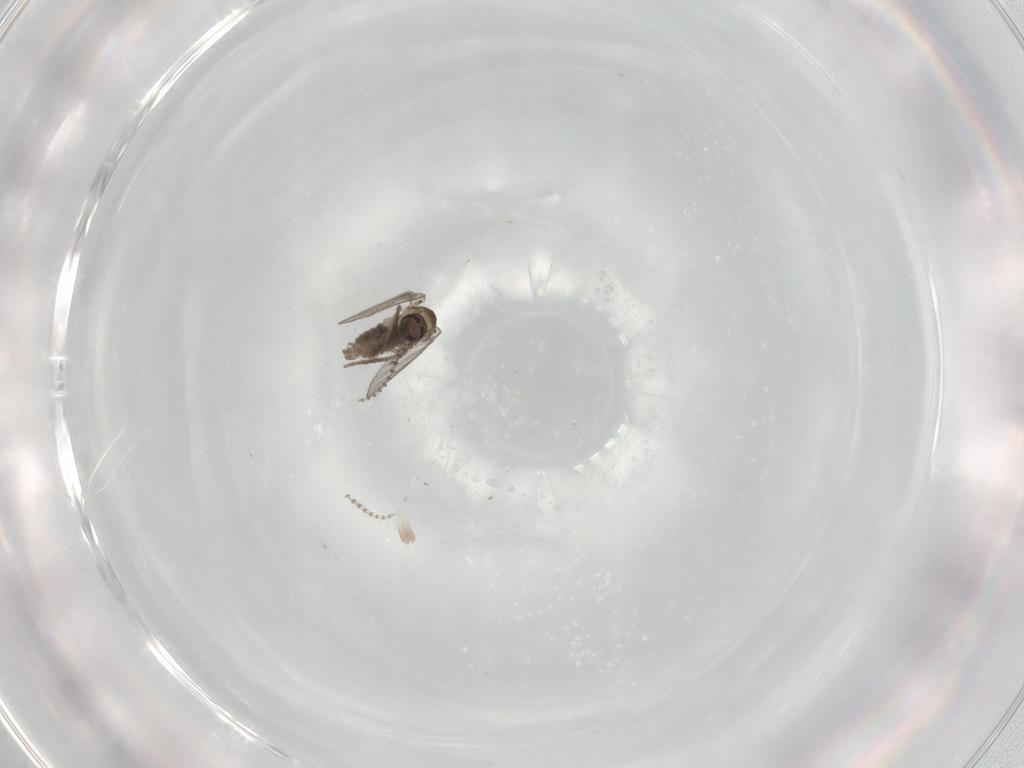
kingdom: Animalia
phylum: Arthropoda
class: Insecta
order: Diptera
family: Psychodidae
